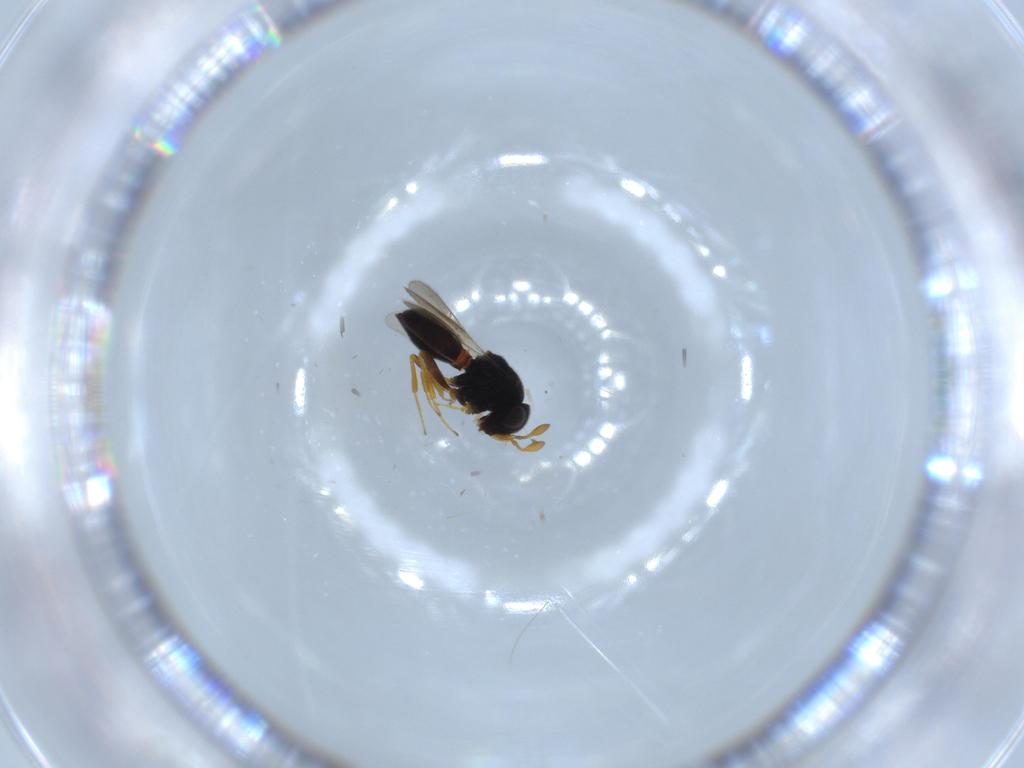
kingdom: Animalia
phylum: Arthropoda
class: Insecta
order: Hymenoptera
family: Scelionidae
